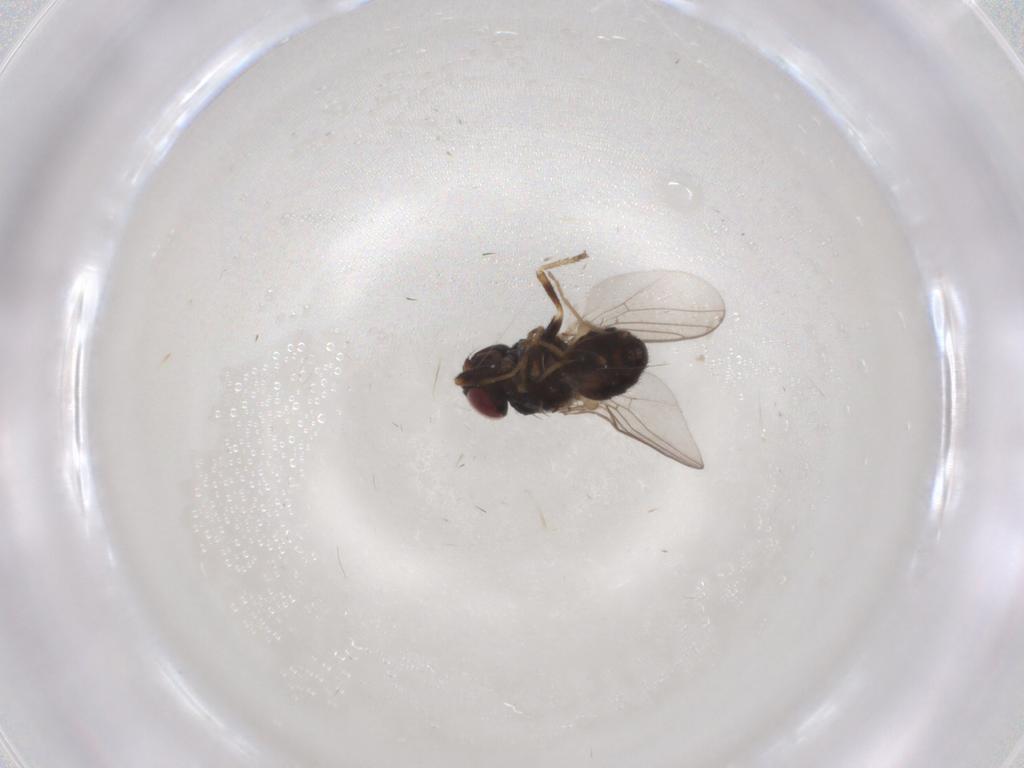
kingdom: Animalia
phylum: Arthropoda
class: Insecta
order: Diptera
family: Chloropidae
